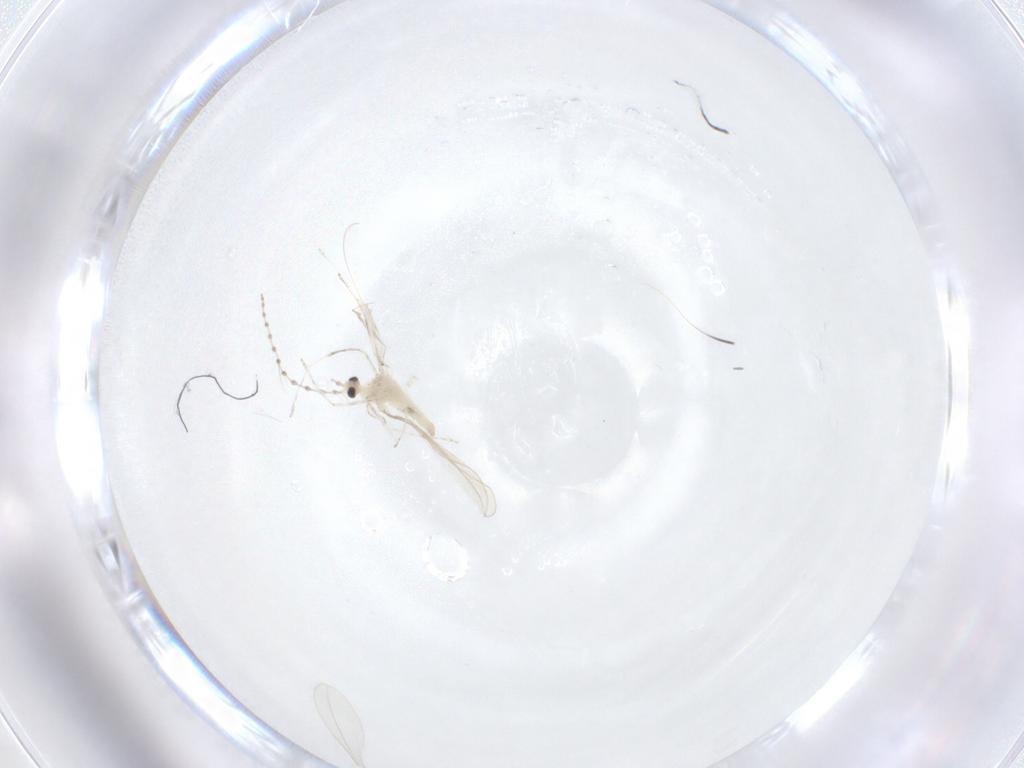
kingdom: Animalia
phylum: Arthropoda
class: Insecta
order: Diptera
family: Cecidomyiidae
